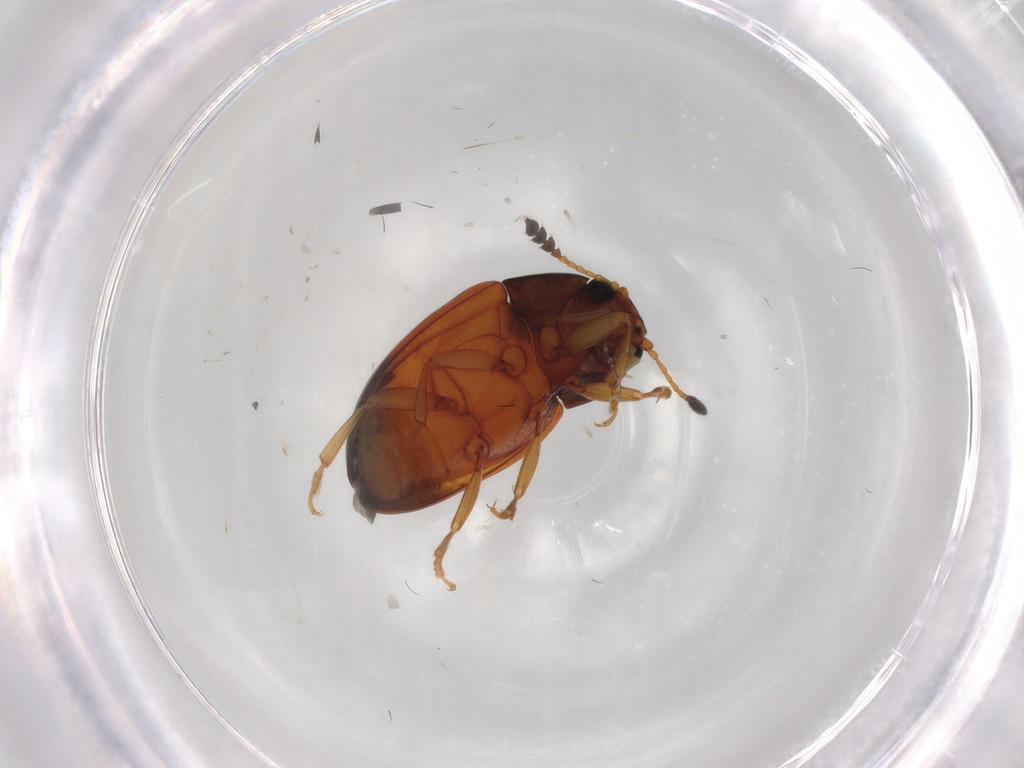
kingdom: Animalia
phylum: Arthropoda
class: Insecta
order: Coleoptera
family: Erotylidae
